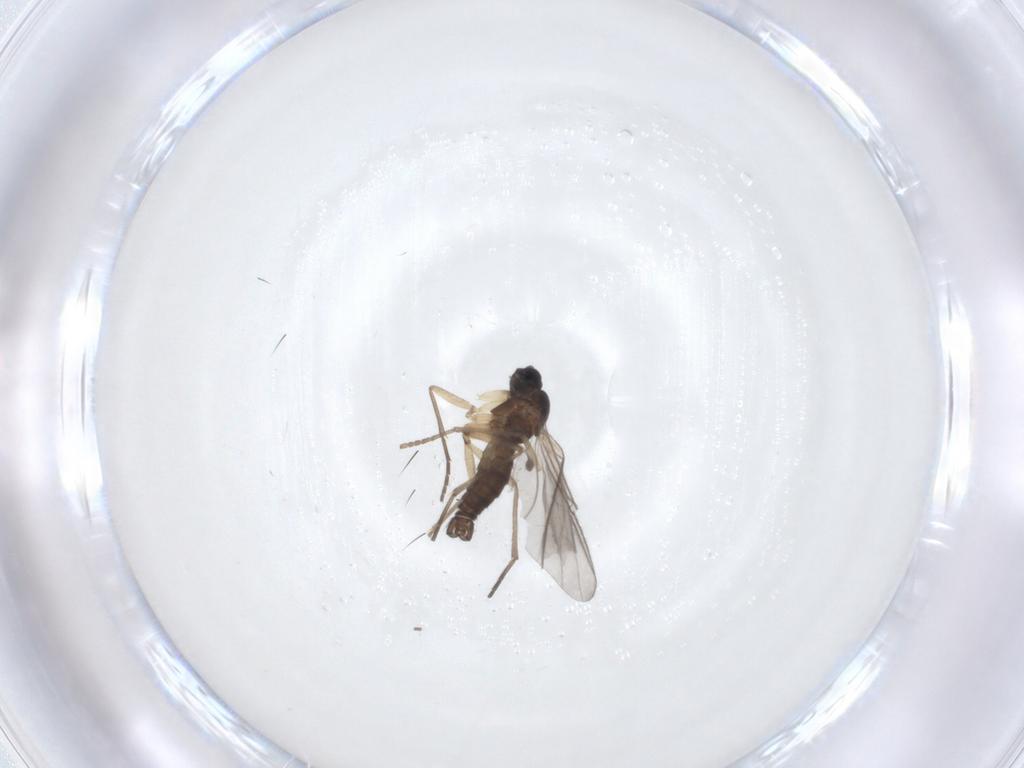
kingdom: Animalia
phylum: Arthropoda
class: Insecta
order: Diptera
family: Sciaridae
